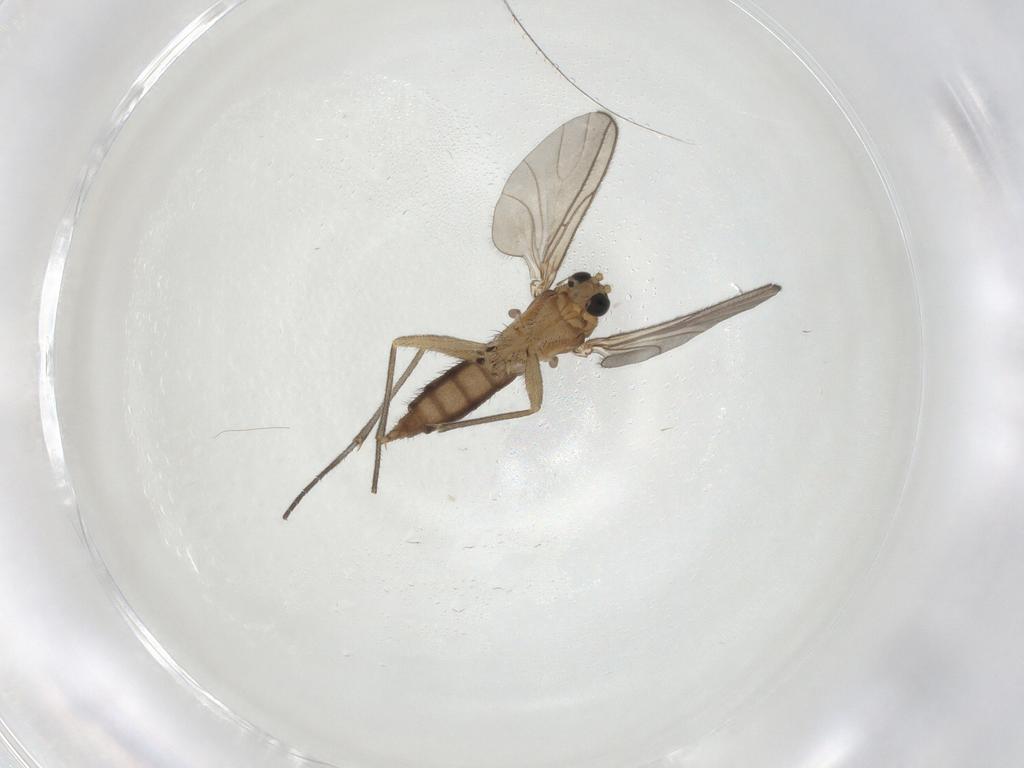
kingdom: Animalia
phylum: Arthropoda
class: Insecta
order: Diptera
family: Sciaridae
